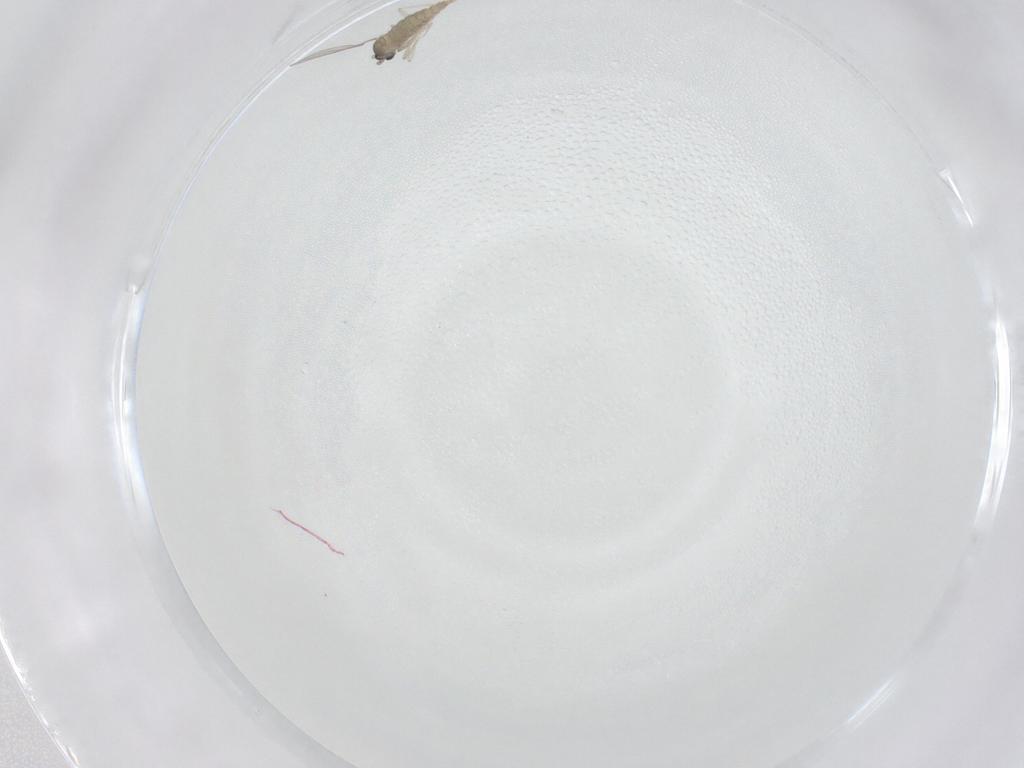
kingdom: Animalia
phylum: Arthropoda
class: Insecta
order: Diptera
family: Cecidomyiidae
